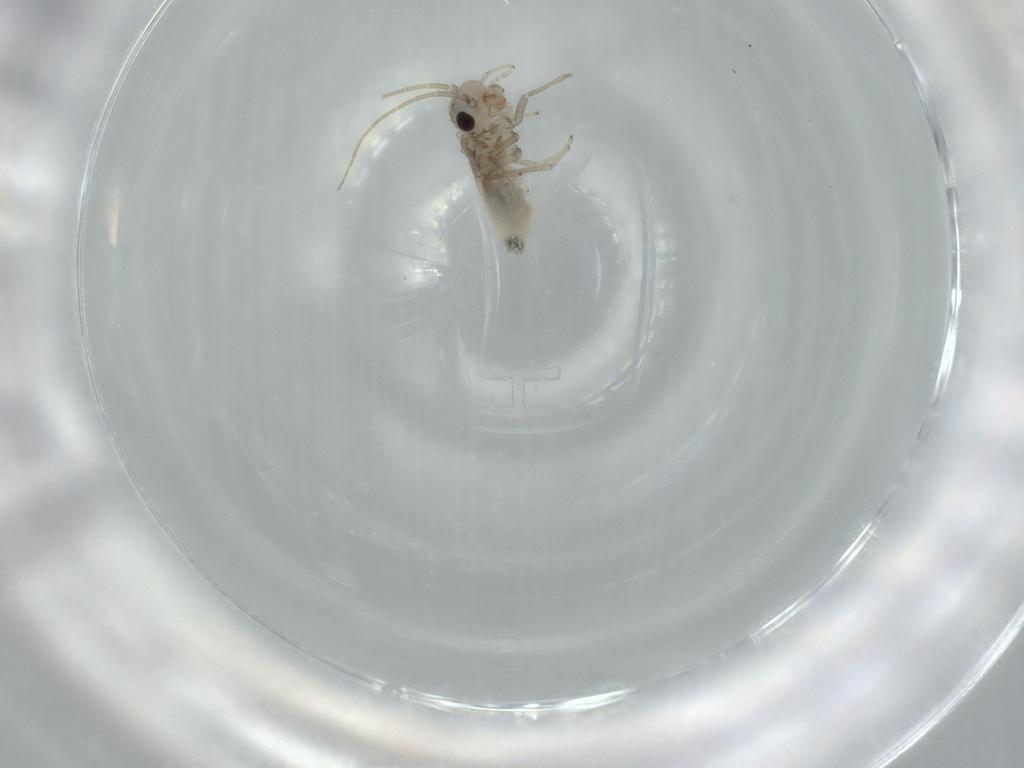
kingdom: Animalia
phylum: Arthropoda
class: Insecta
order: Psocodea
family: Caeciliusidae
